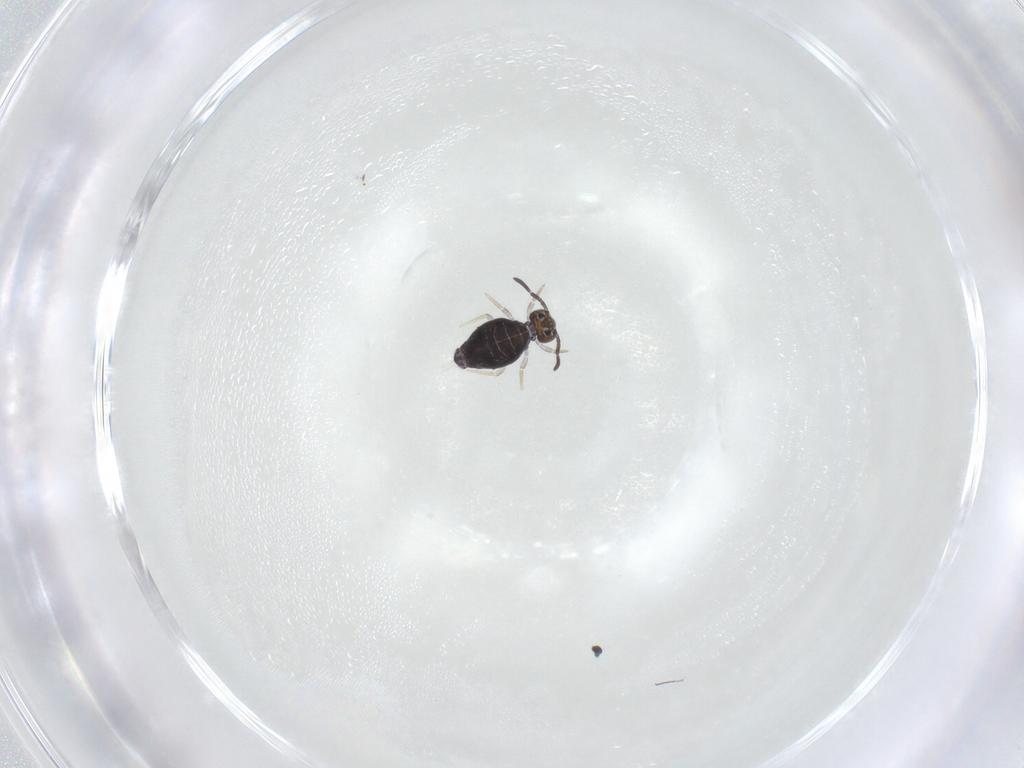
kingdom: Animalia
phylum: Arthropoda
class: Collembola
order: Symphypleona
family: Katiannidae
